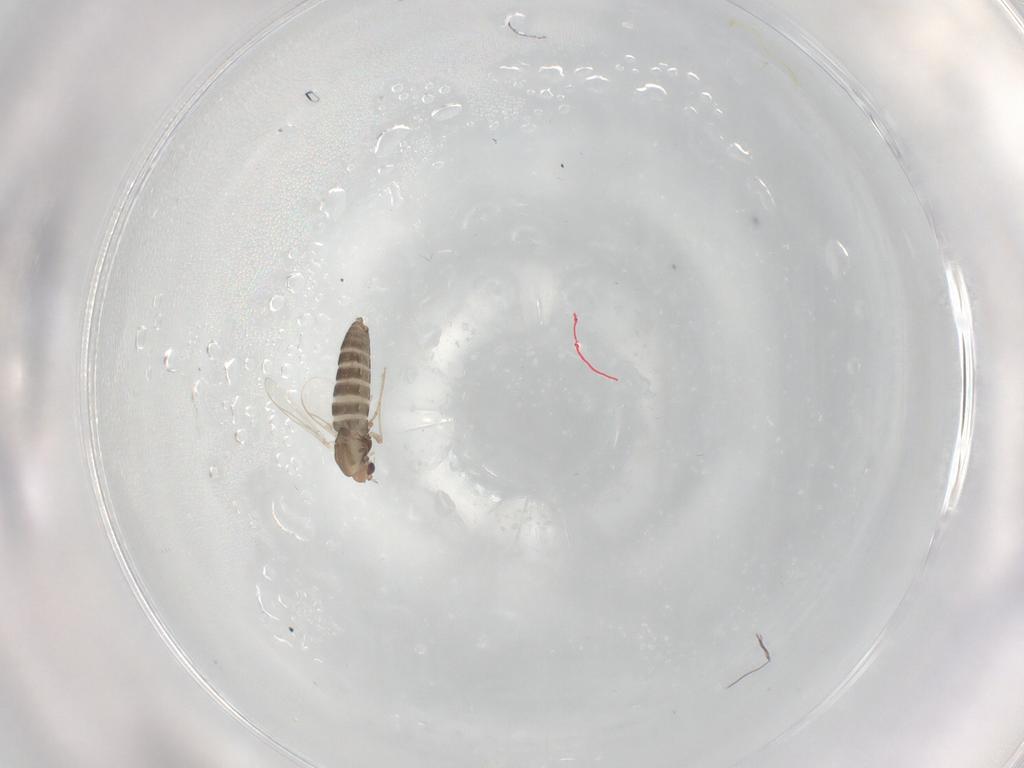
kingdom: Animalia
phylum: Arthropoda
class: Insecta
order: Diptera
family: Chironomidae
